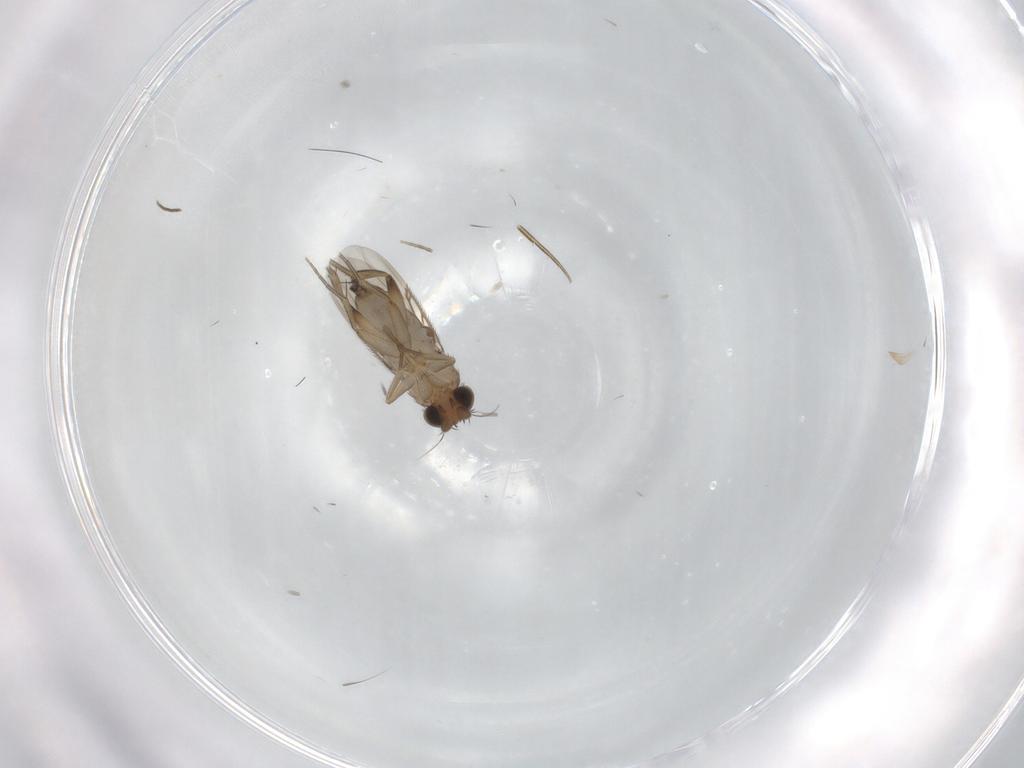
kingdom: Animalia
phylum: Arthropoda
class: Insecta
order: Diptera
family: Phoridae
